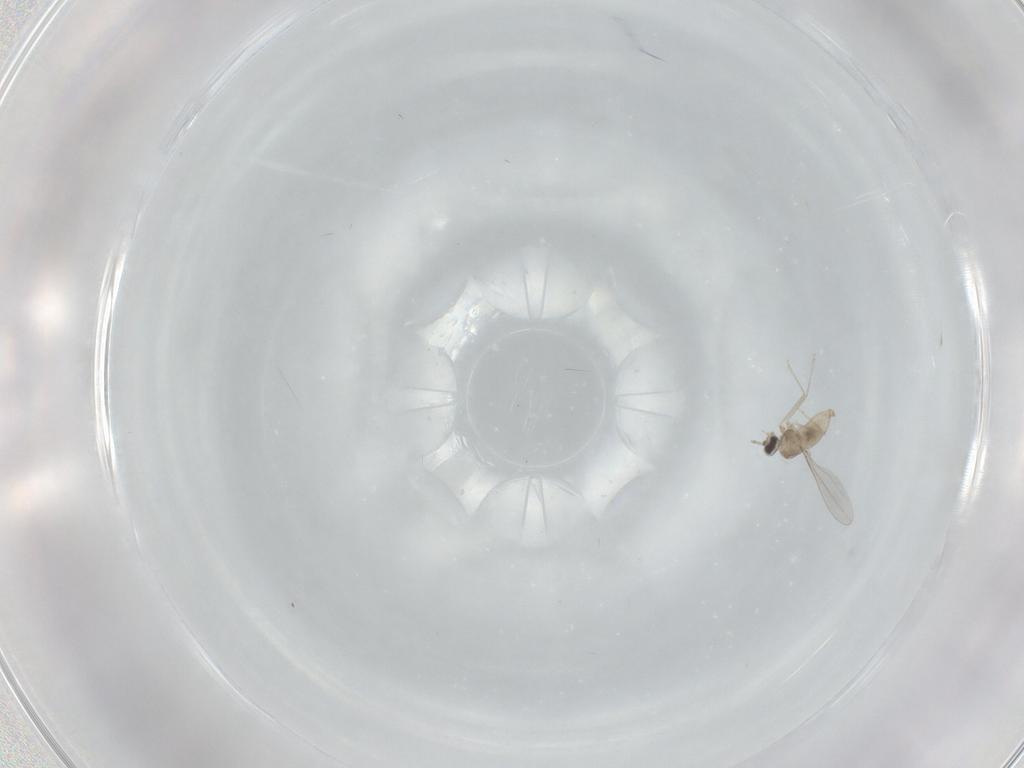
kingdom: Animalia
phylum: Arthropoda
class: Insecta
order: Diptera
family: Cecidomyiidae
